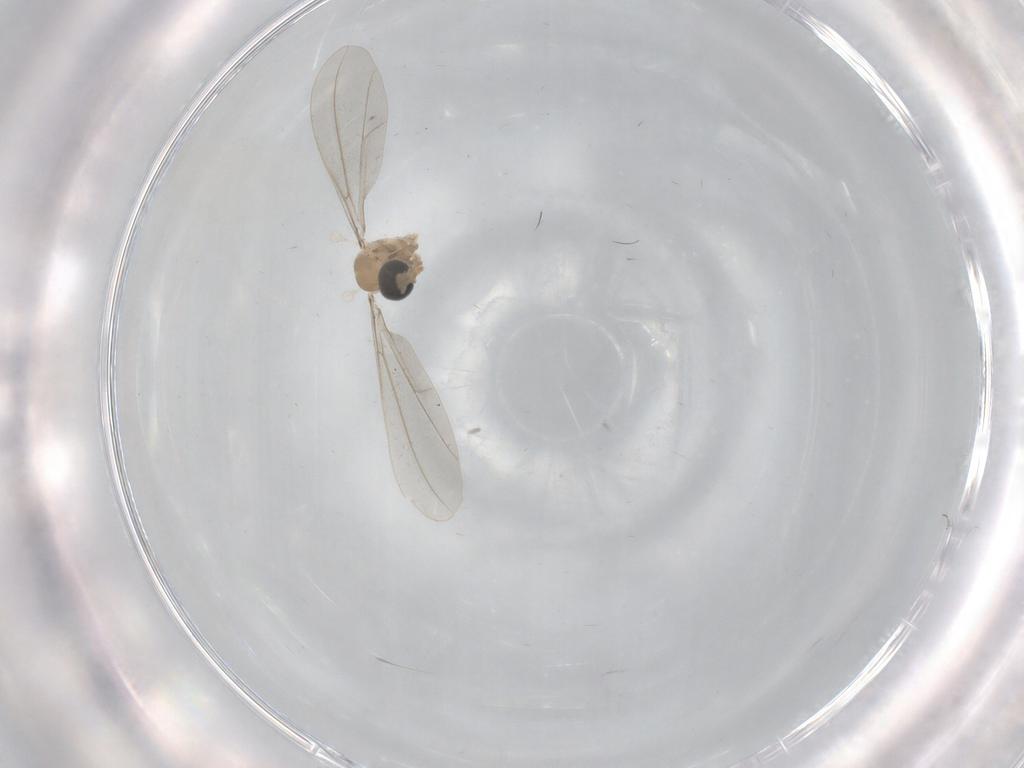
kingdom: Animalia
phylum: Arthropoda
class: Insecta
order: Diptera
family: Cecidomyiidae
